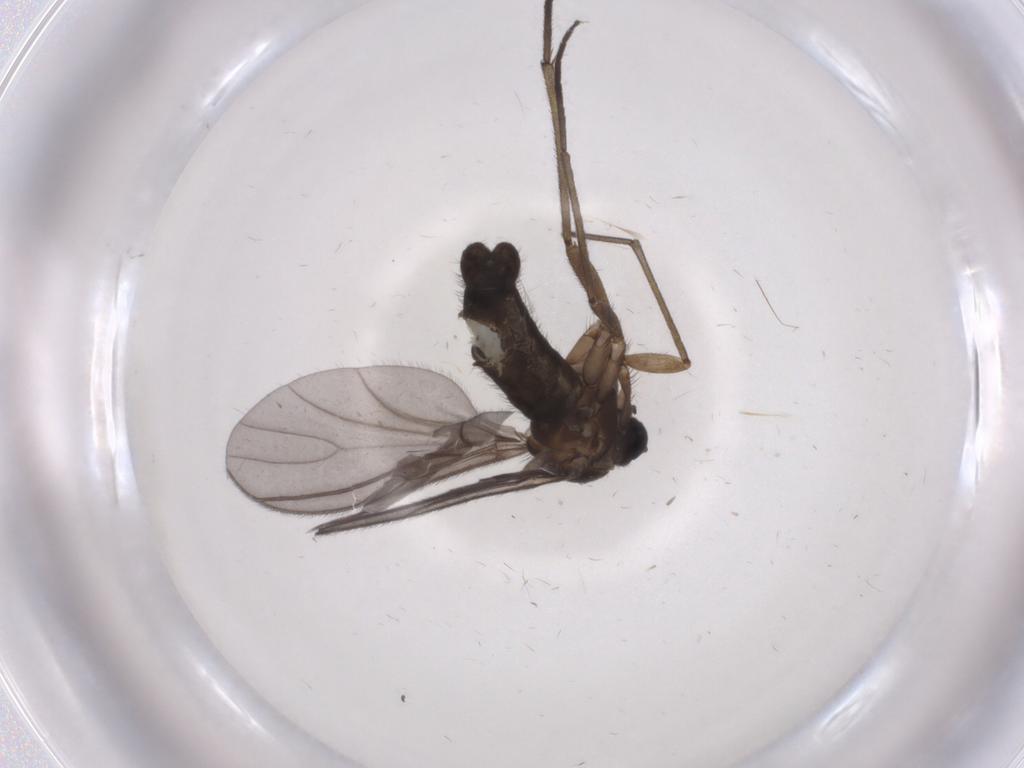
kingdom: Animalia
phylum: Arthropoda
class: Insecta
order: Diptera
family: Sciaridae
